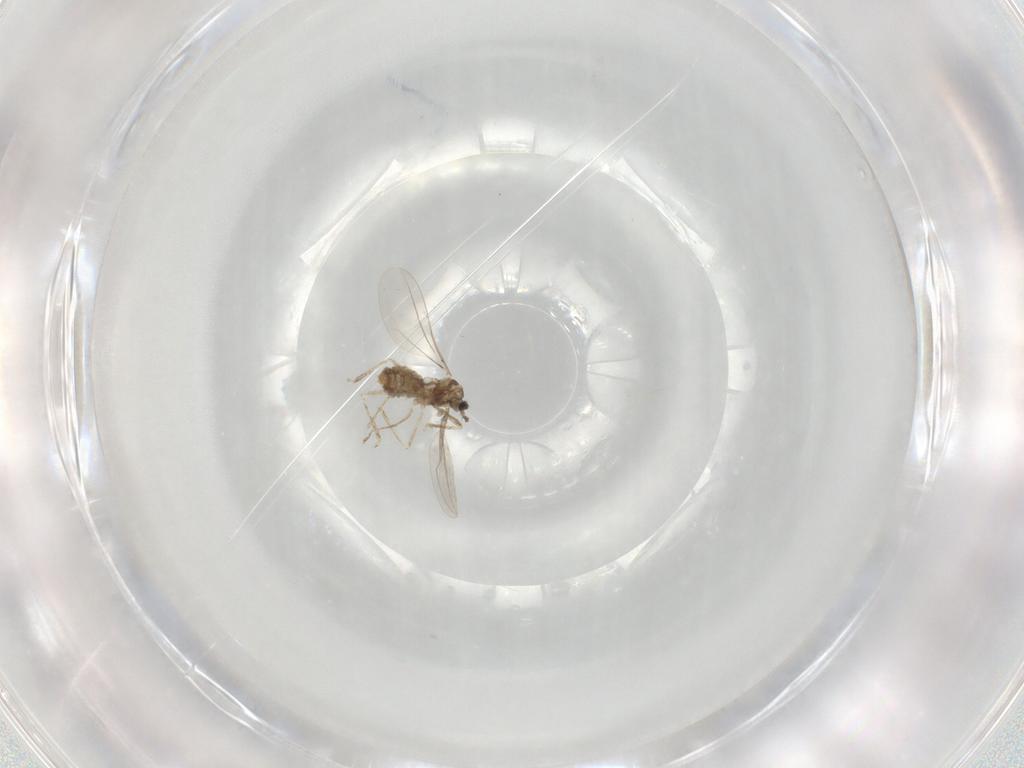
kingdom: Animalia
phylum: Arthropoda
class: Insecta
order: Diptera
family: Cecidomyiidae
